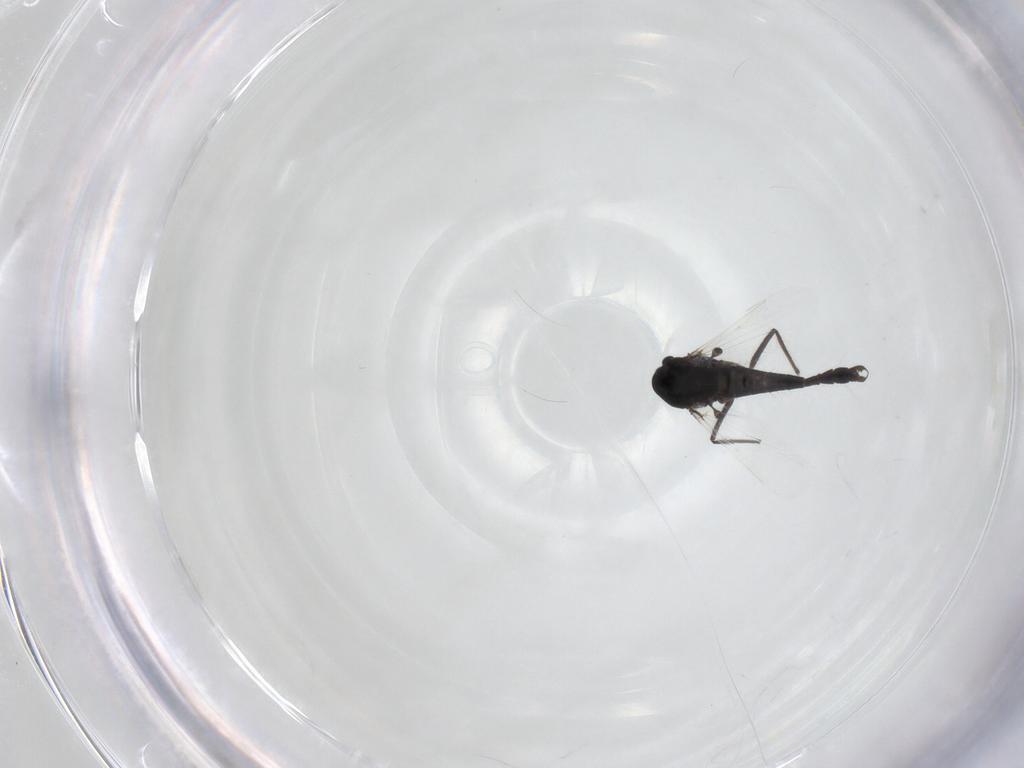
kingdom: Animalia
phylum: Arthropoda
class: Insecta
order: Diptera
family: Chironomidae
